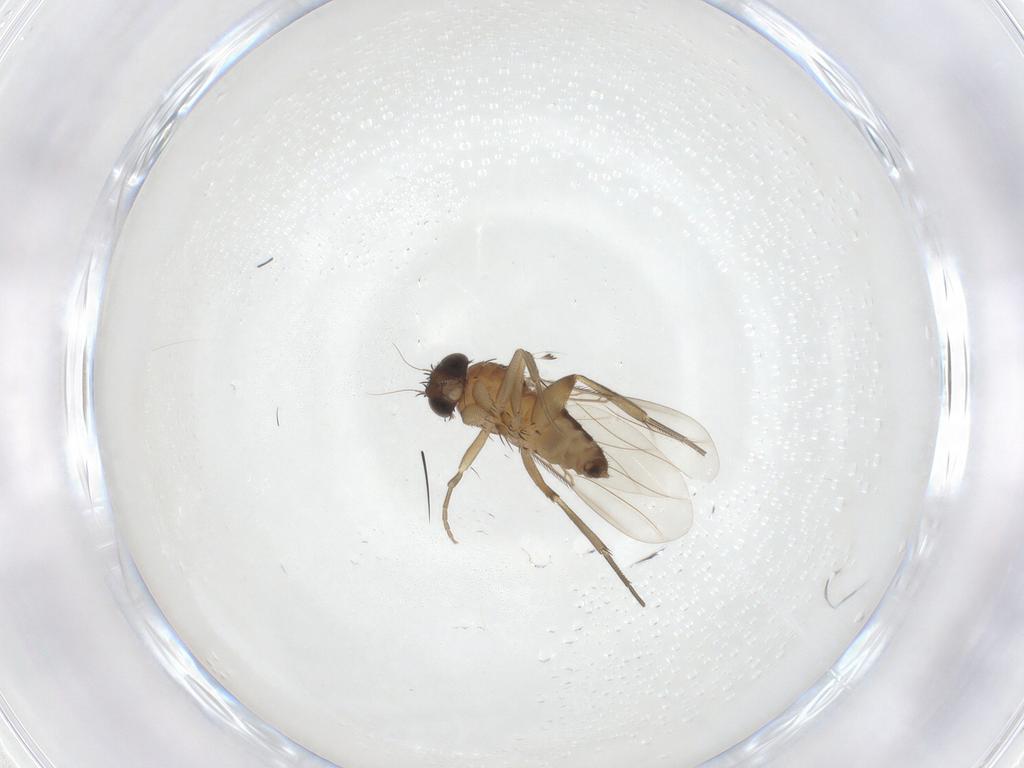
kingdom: Animalia
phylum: Arthropoda
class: Insecta
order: Diptera
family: Phoridae
